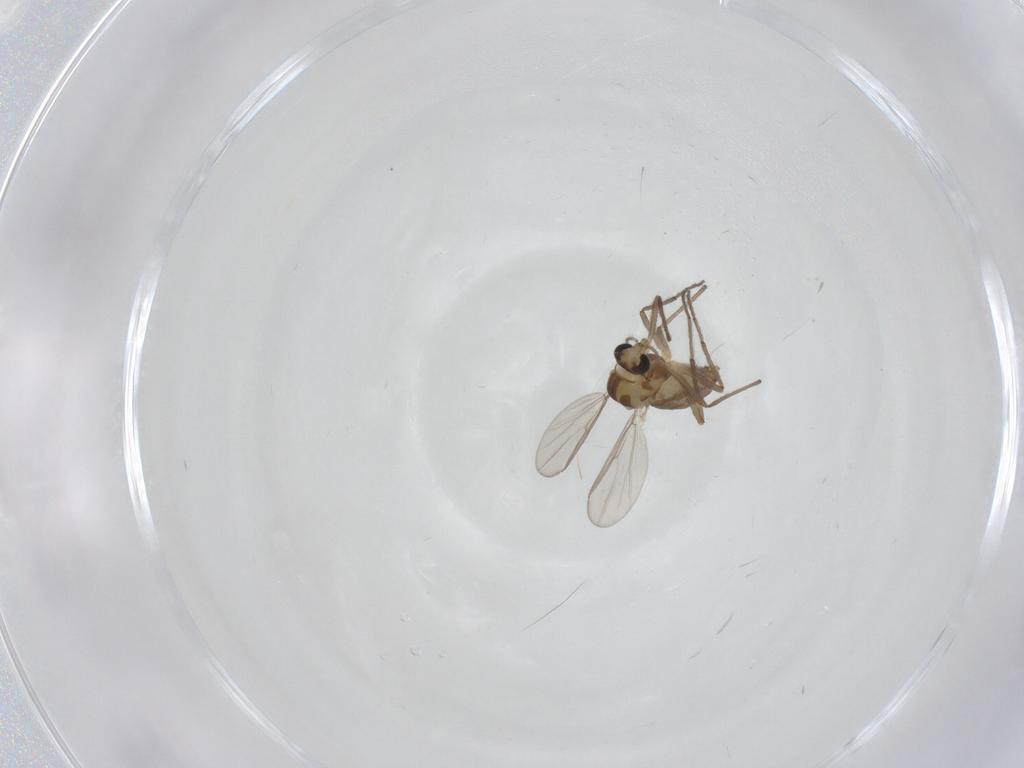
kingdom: Animalia
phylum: Arthropoda
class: Insecta
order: Diptera
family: Chironomidae
